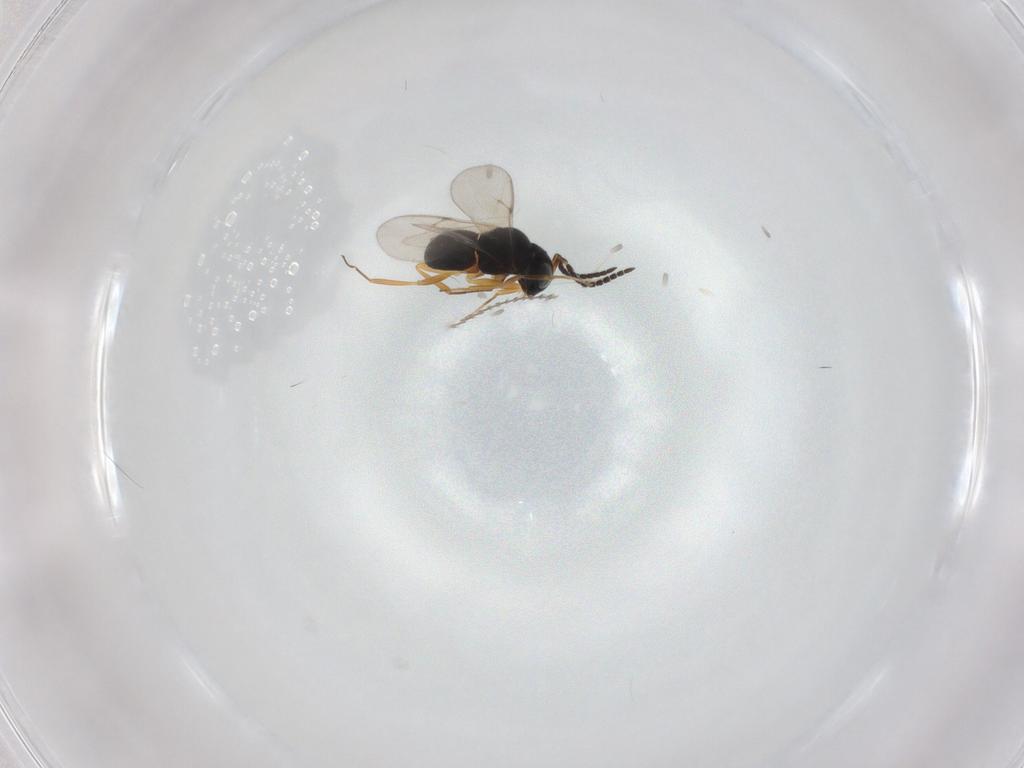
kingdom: Animalia
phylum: Arthropoda
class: Insecta
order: Hymenoptera
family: Scelionidae
